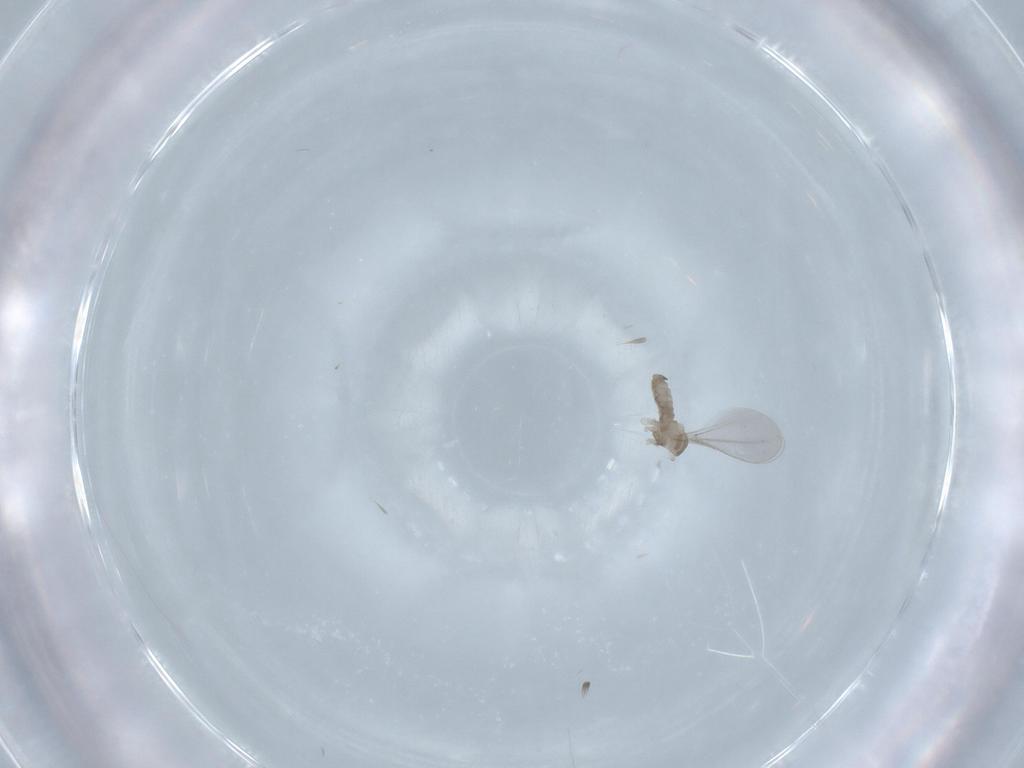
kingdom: Animalia
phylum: Arthropoda
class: Insecta
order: Diptera
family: Cecidomyiidae
